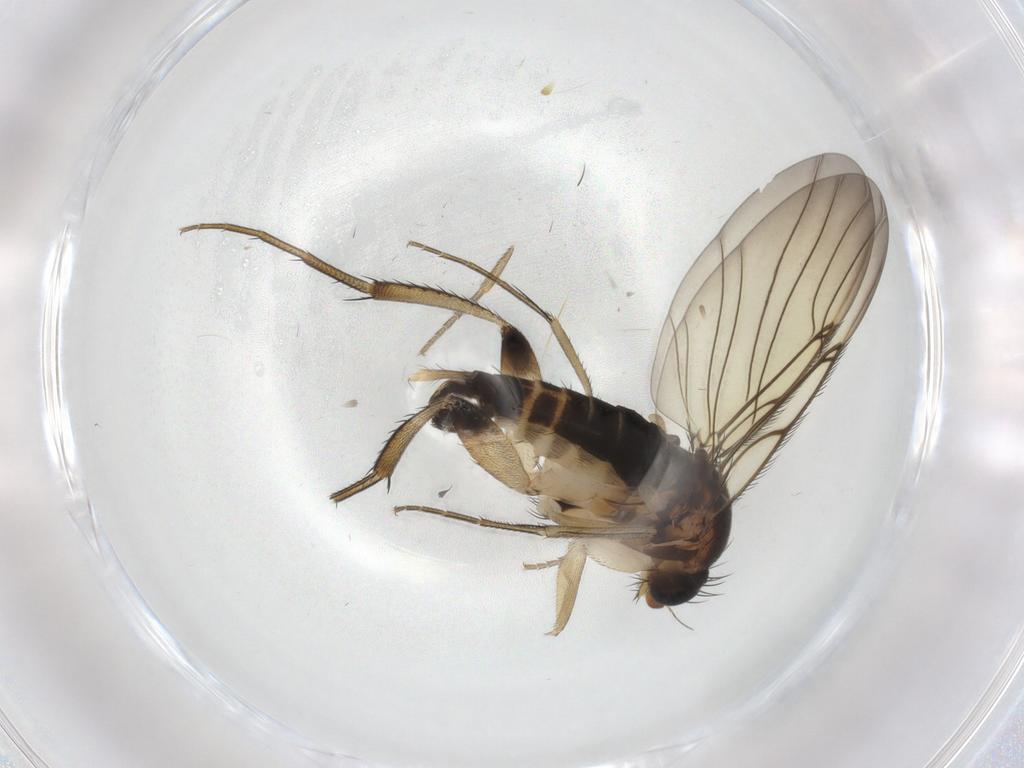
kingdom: Animalia
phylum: Arthropoda
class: Insecta
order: Diptera
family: Phoridae
